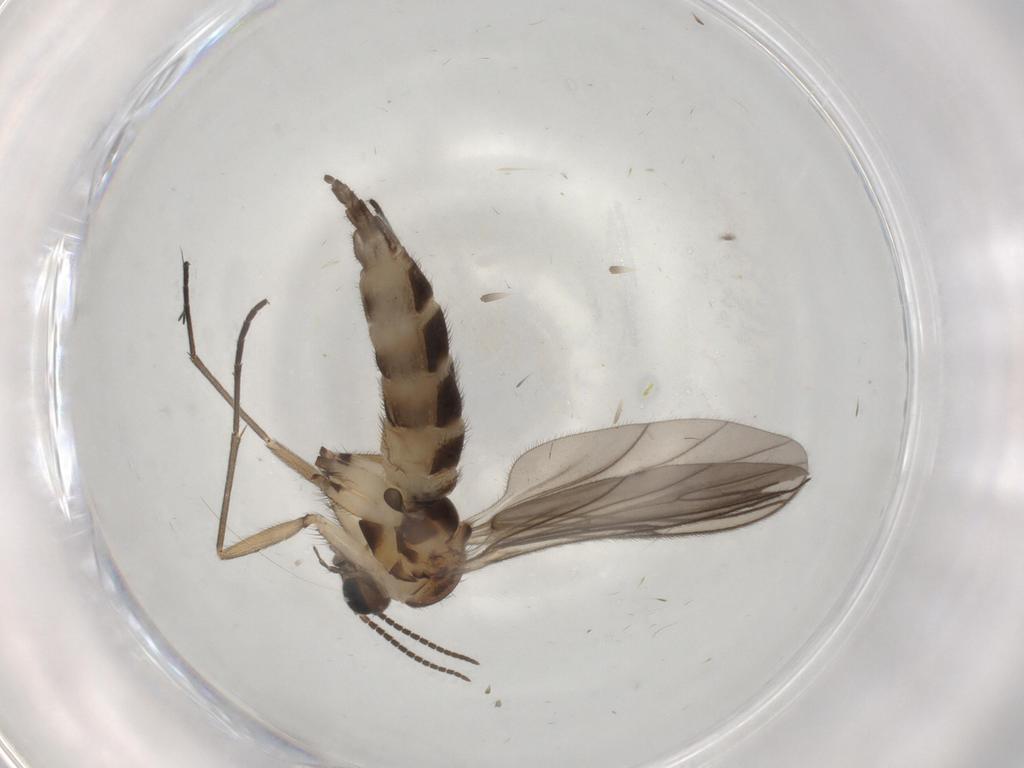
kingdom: Animalia
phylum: Arthropoda
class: Insecta
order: Diptera
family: Sciaridae
